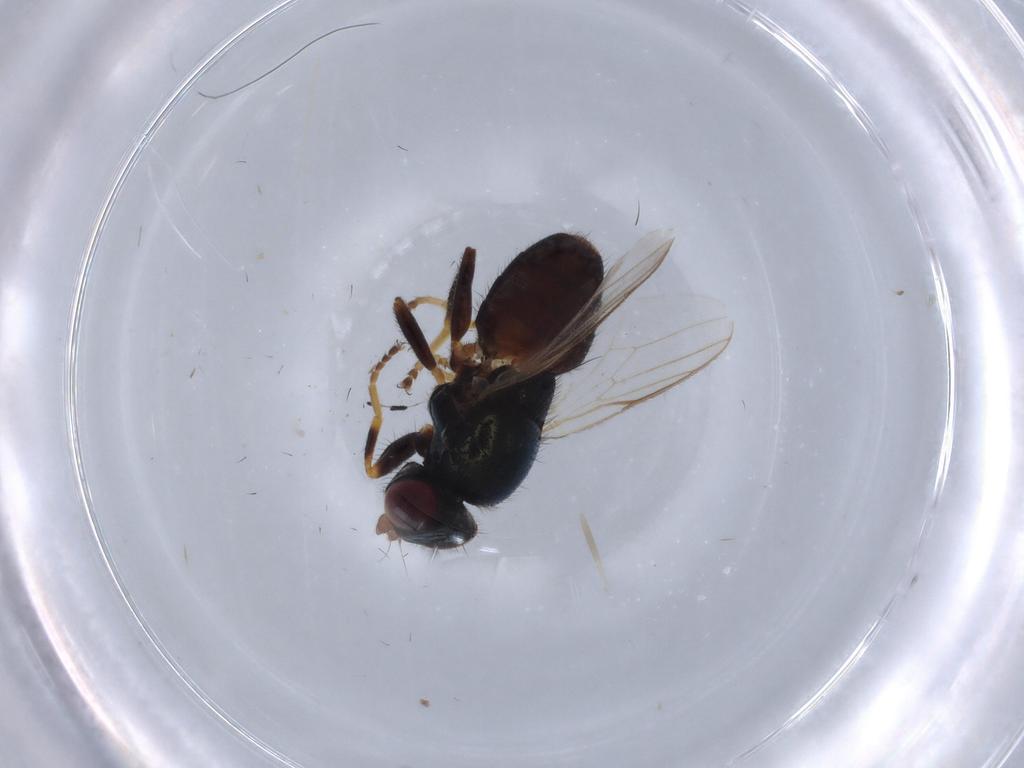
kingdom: Animalia
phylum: Arthropoda
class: Insecta
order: Diptera
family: Chloropidae
